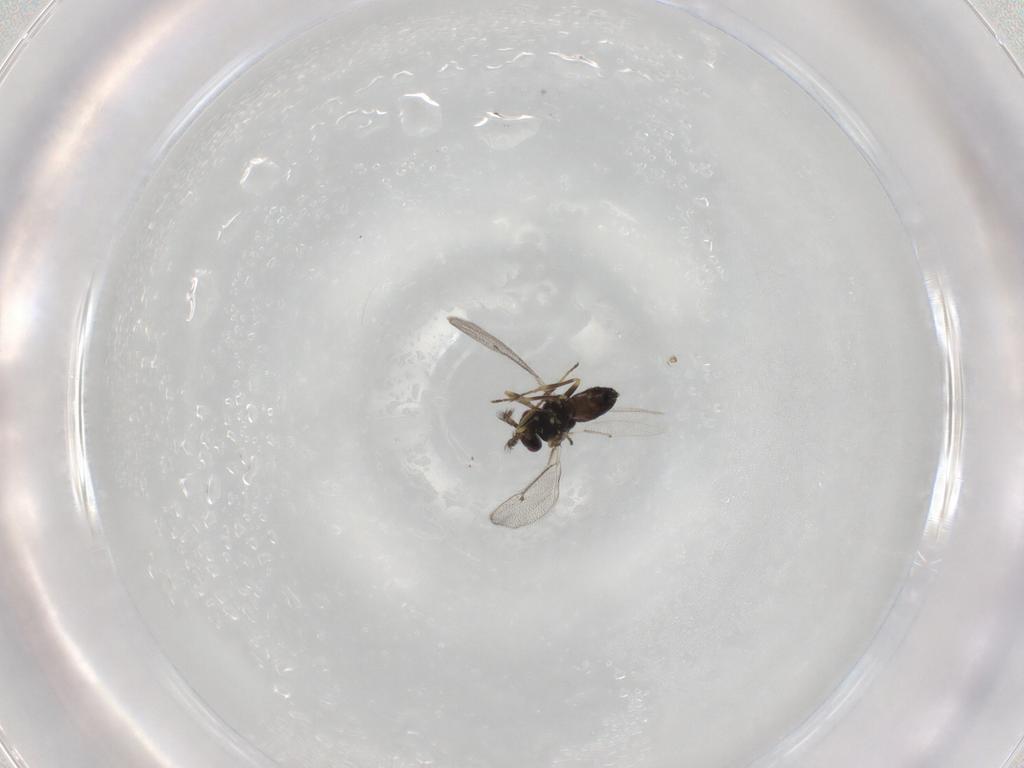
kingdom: Animalia
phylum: Arthropoda
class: Insecta
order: Hymenoptera
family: Eulophidae
